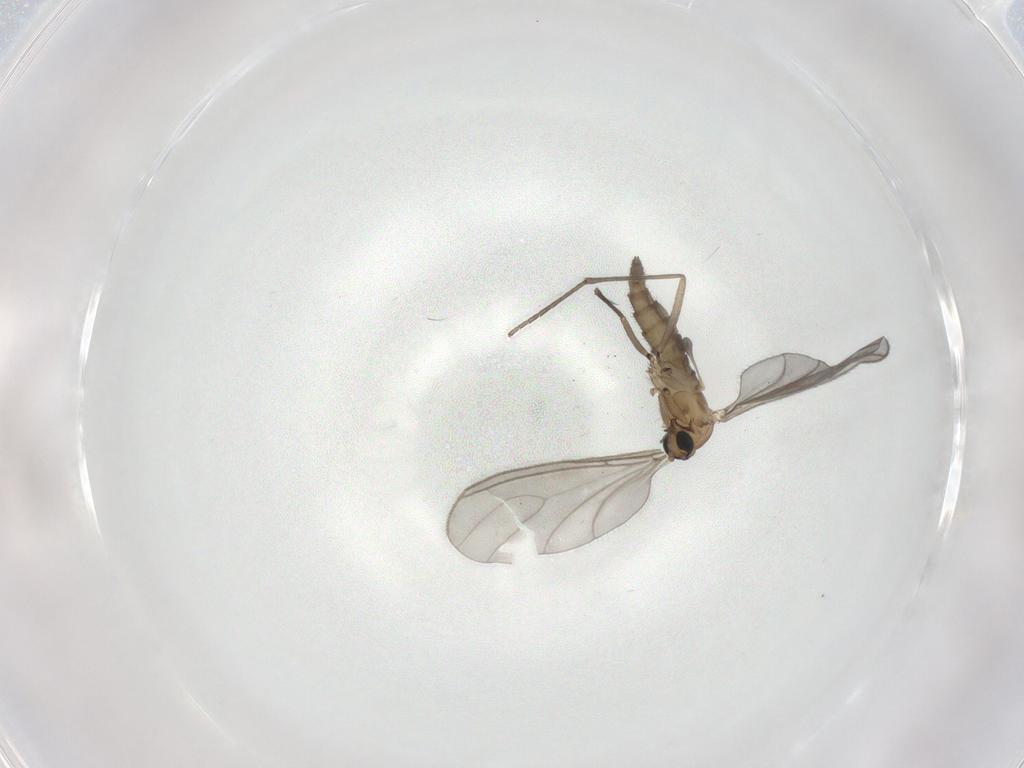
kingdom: Animalia
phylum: Arthropoda
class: Insecta
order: Diptera
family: Sciaridae
